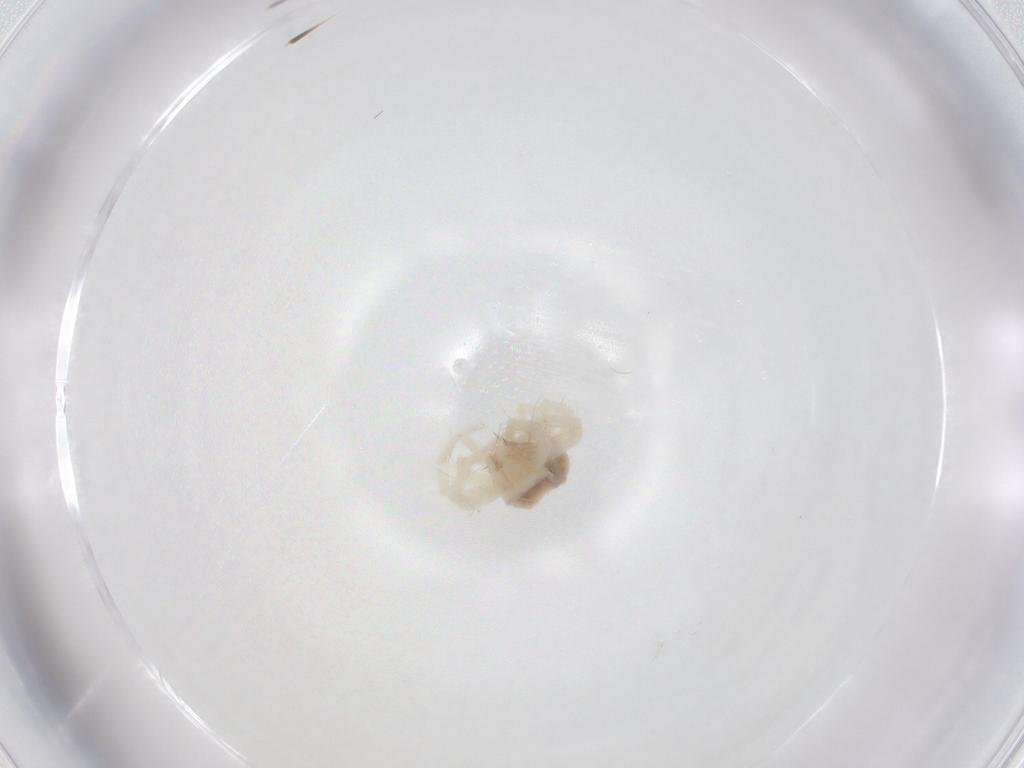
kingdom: Animalia
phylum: Arthropoda
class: Arachnida
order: Trombidiformes
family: Anystidae
